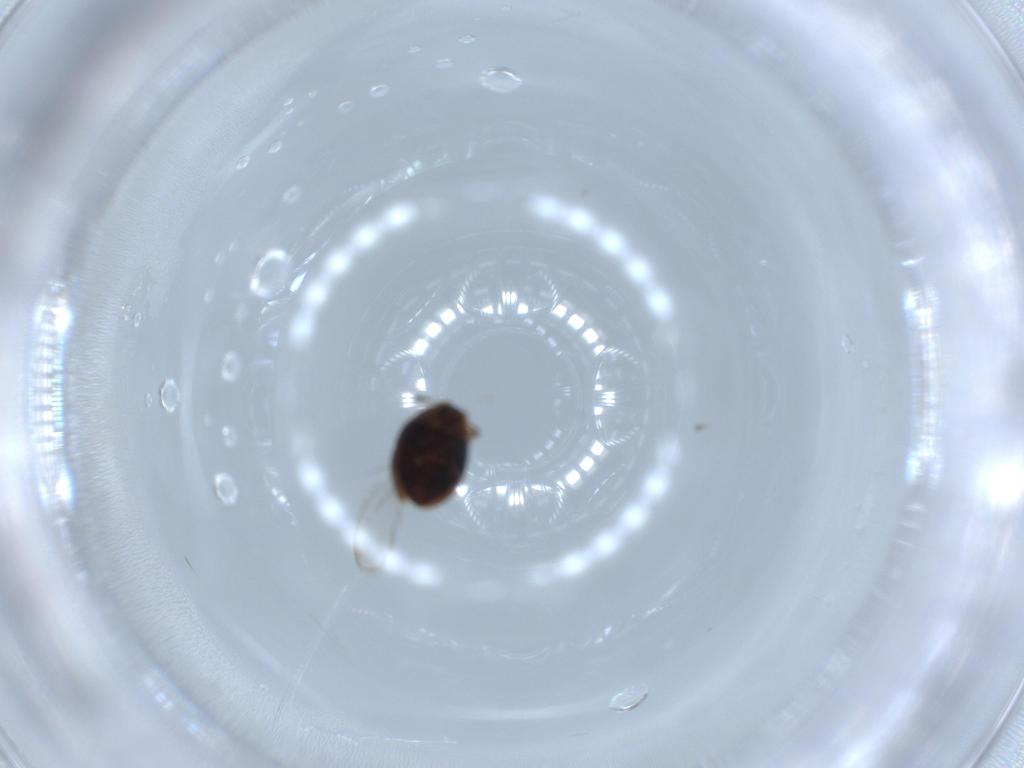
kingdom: Animalia
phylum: Arthropoda
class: Insecta
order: Coleoptera
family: Corylophidae
